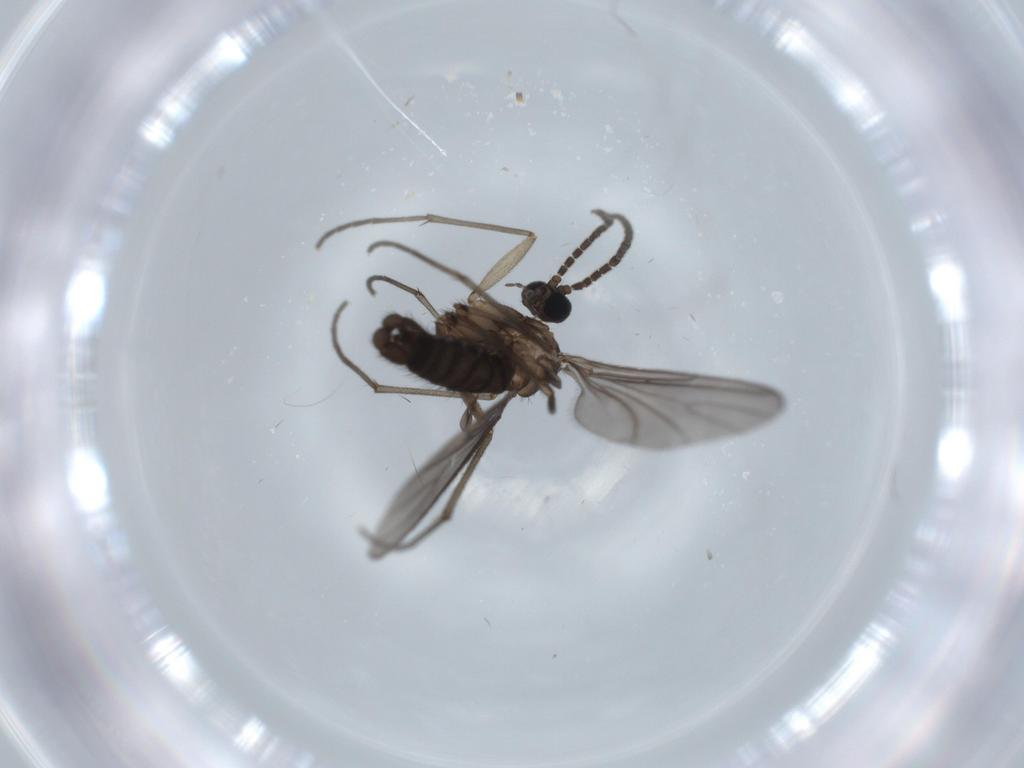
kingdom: Animalia
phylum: Arthropoda
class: Insecta
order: Diptera
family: Sciaridae
